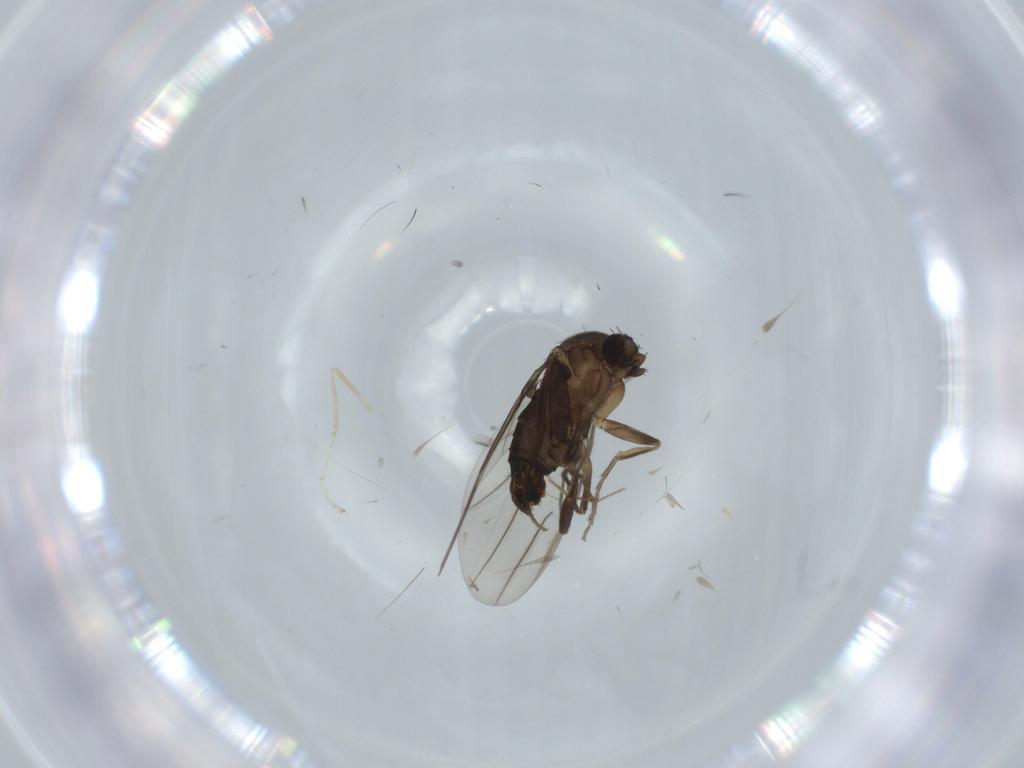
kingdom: Animalia
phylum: Arthropoda
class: Insecta
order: Diptera
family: Cecidomyiidae
